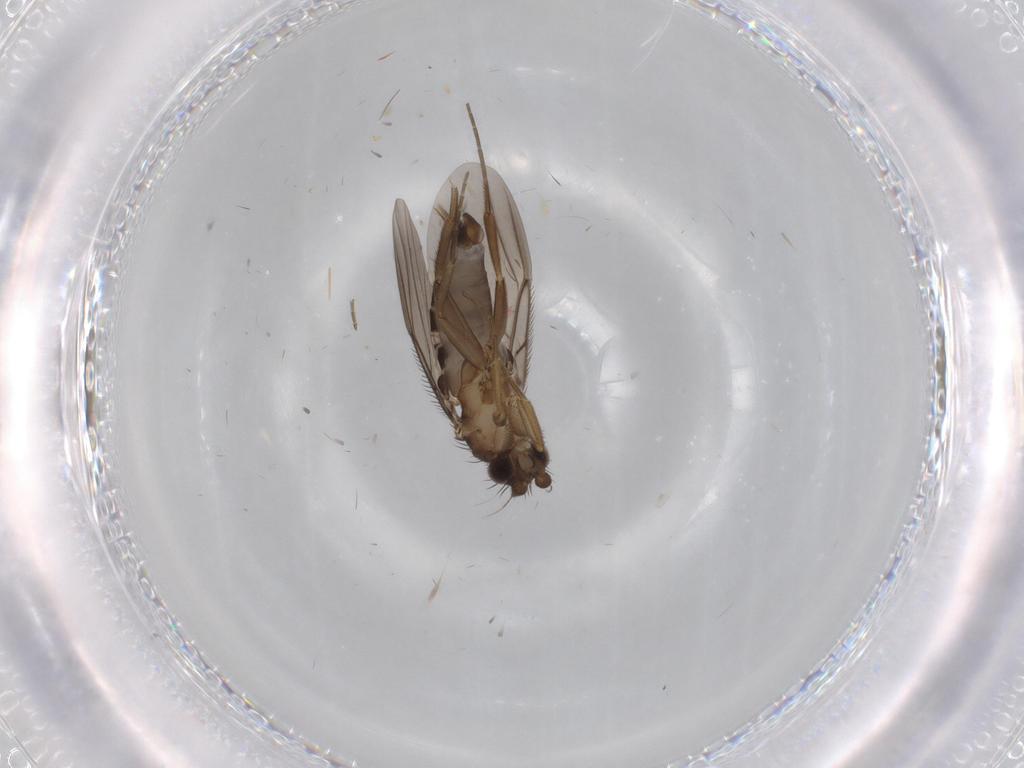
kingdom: Animalia
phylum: Arthropoda
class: Insecta
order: Diptera
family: Chironomidae
